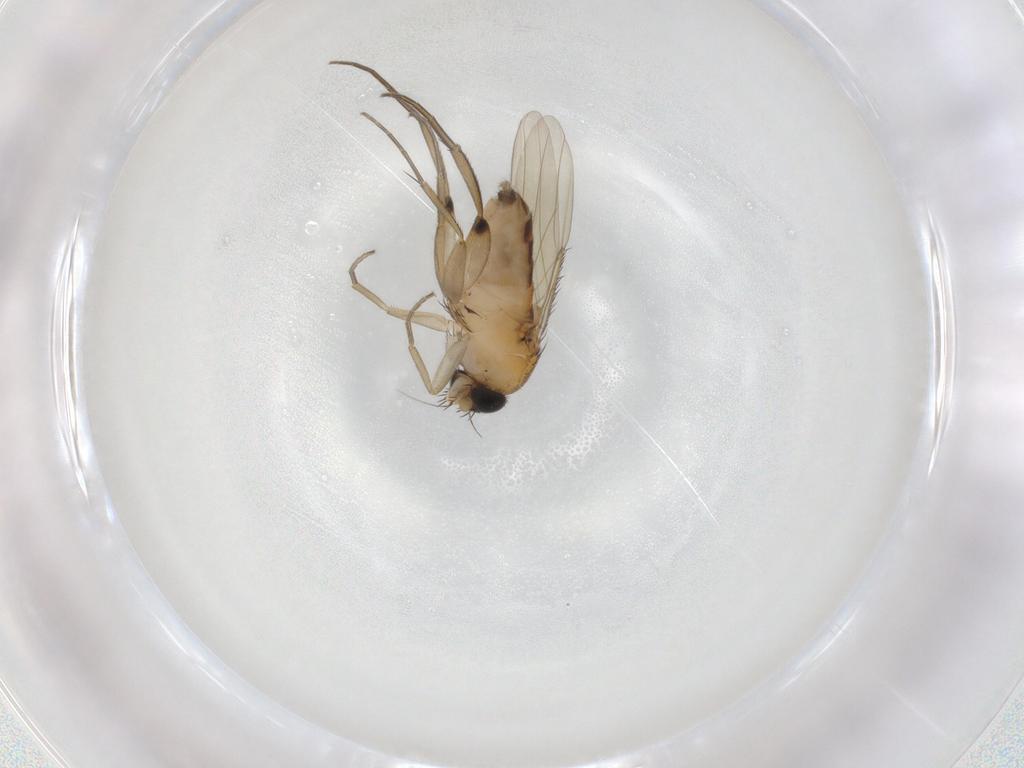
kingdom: Animalia
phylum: Arthropoda
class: Insecta
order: Diptera
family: Phoridae
